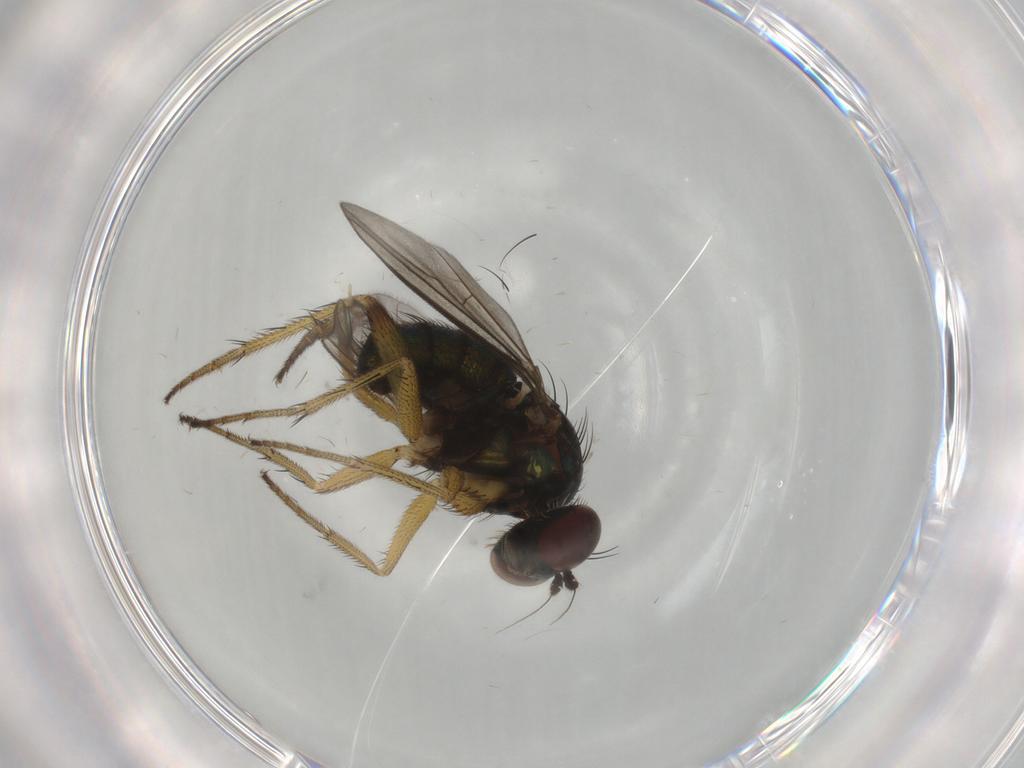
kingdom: Animalia
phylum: Arthropoda
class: Insecta
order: Diptera
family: Dolichopodidae
